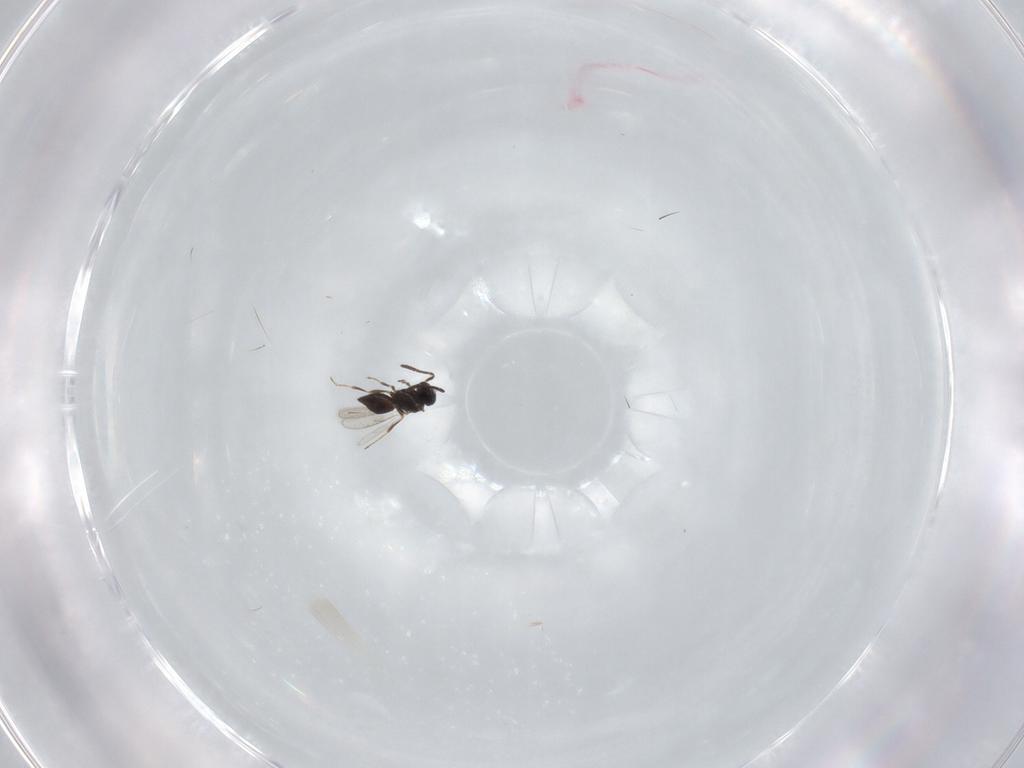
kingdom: Animalia
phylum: Arthropoda
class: Insecta
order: Hymenoptera
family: Scelionidae
